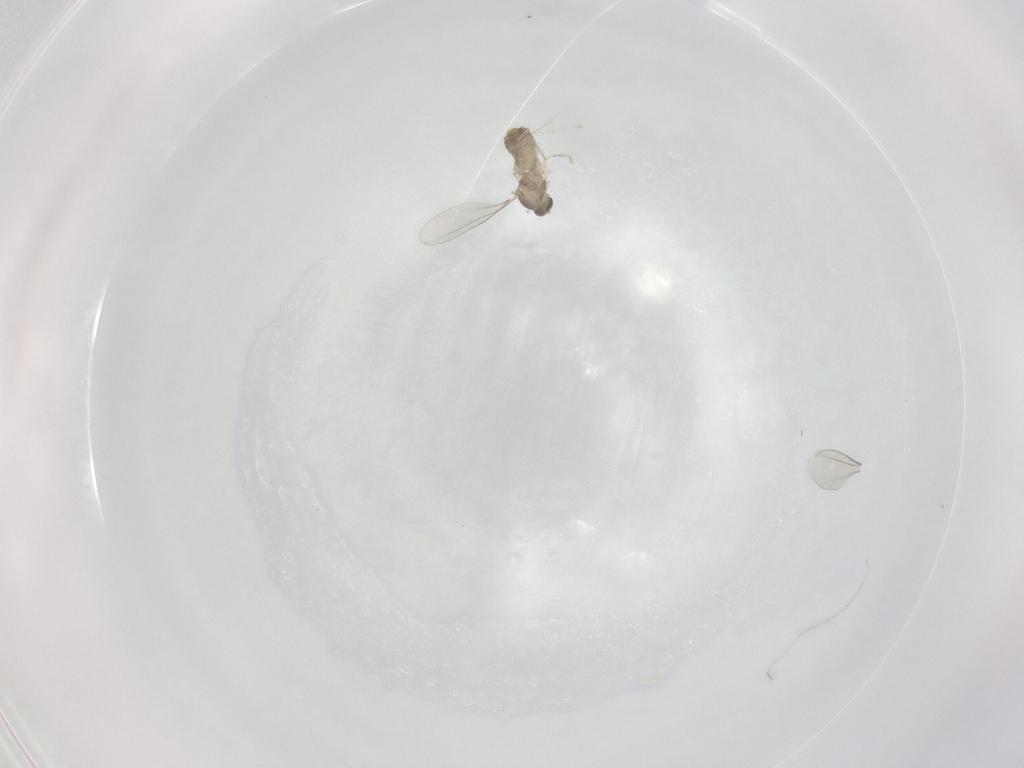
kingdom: Animalia
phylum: Arthropoda
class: Insecta
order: Diptera
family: Cecidomyiidae
